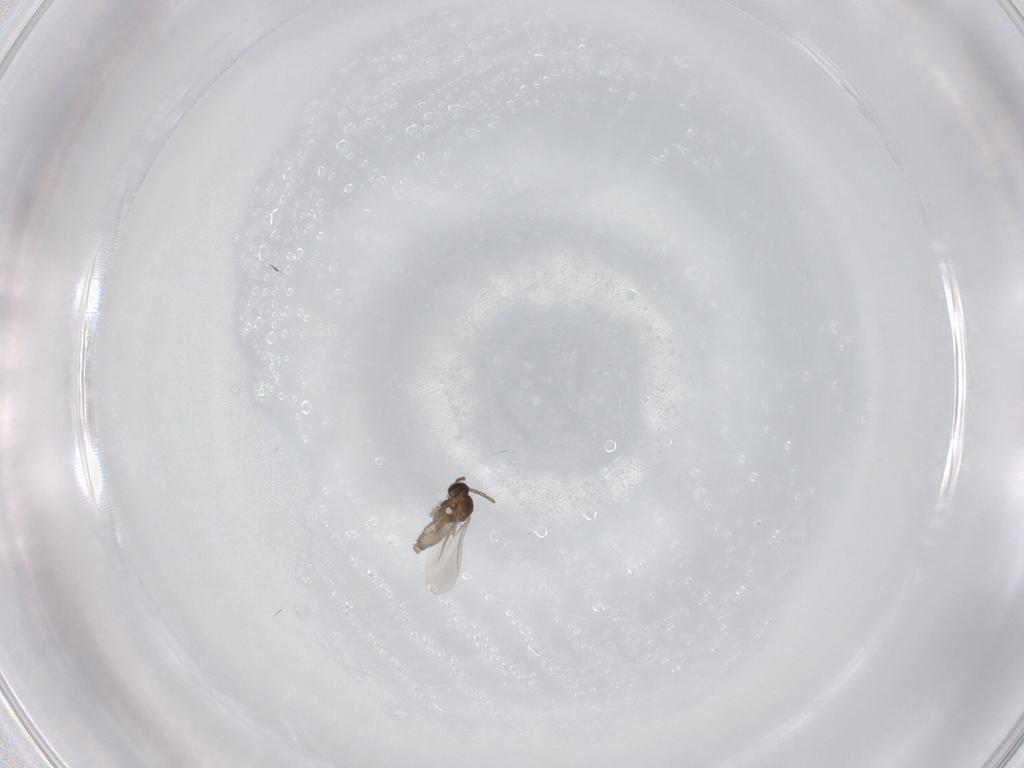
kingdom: Animalia
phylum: Arthropoda
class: Insecta
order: Diptera
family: Cecidomyiidae
